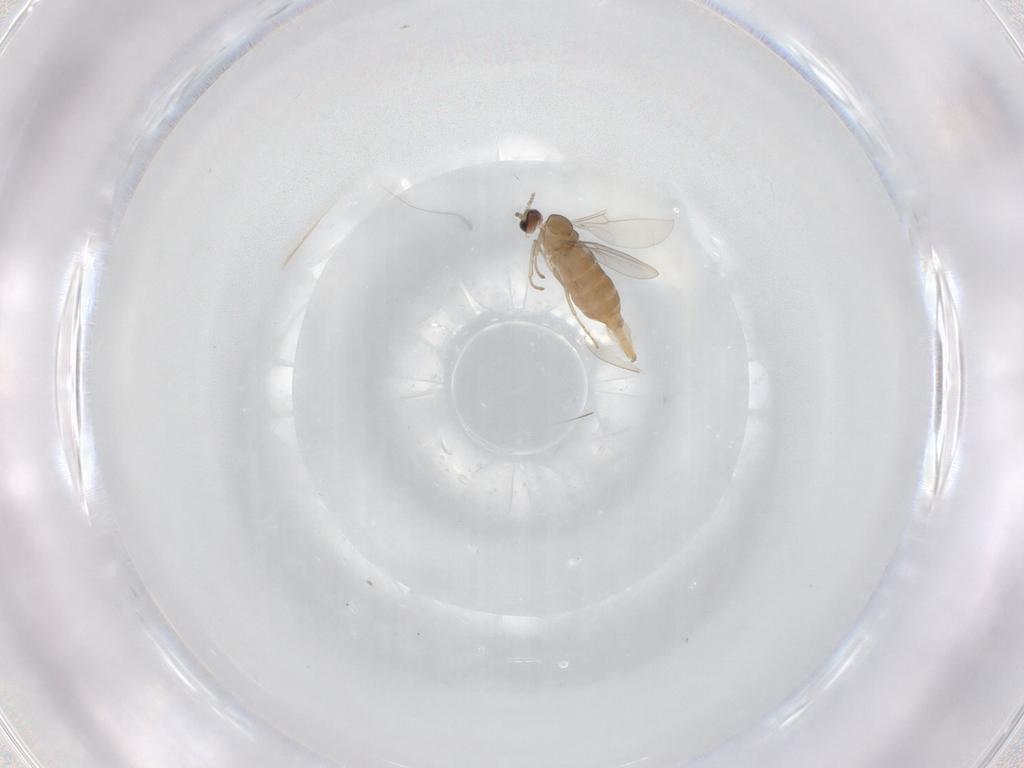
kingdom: Animalia
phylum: Arthropoda
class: Insecta
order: Diptera
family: Cecidomyiidae
